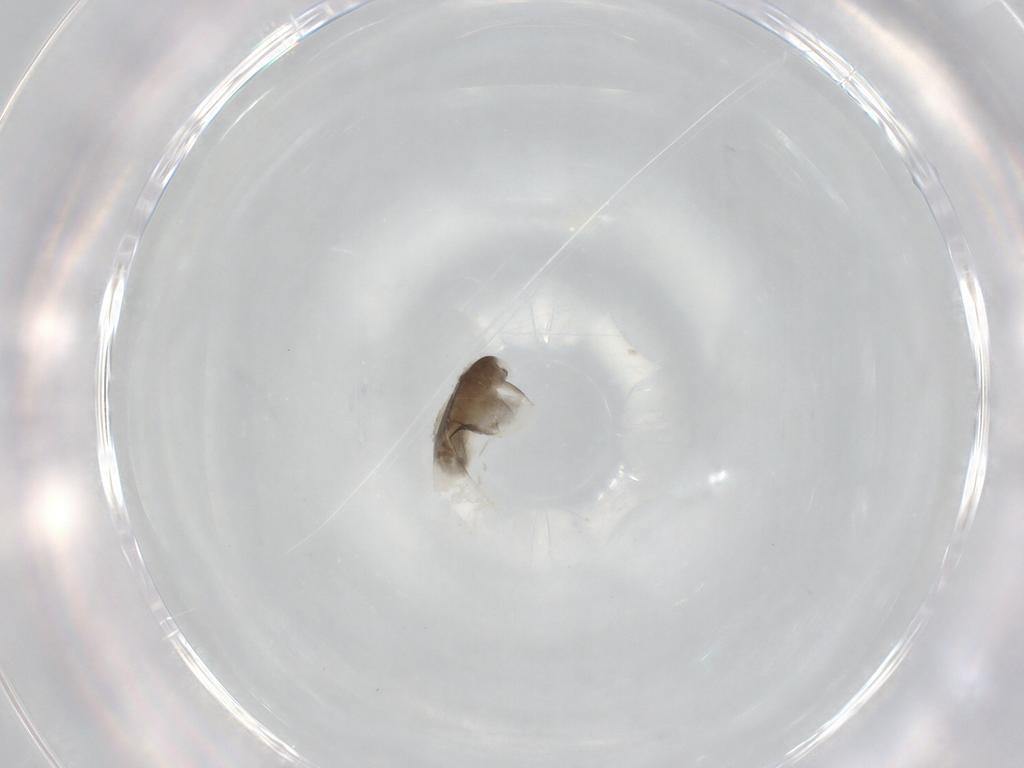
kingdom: Animalia
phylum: Arthropoda
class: Branchiopoda
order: Diplostraca
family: Daphniidae
